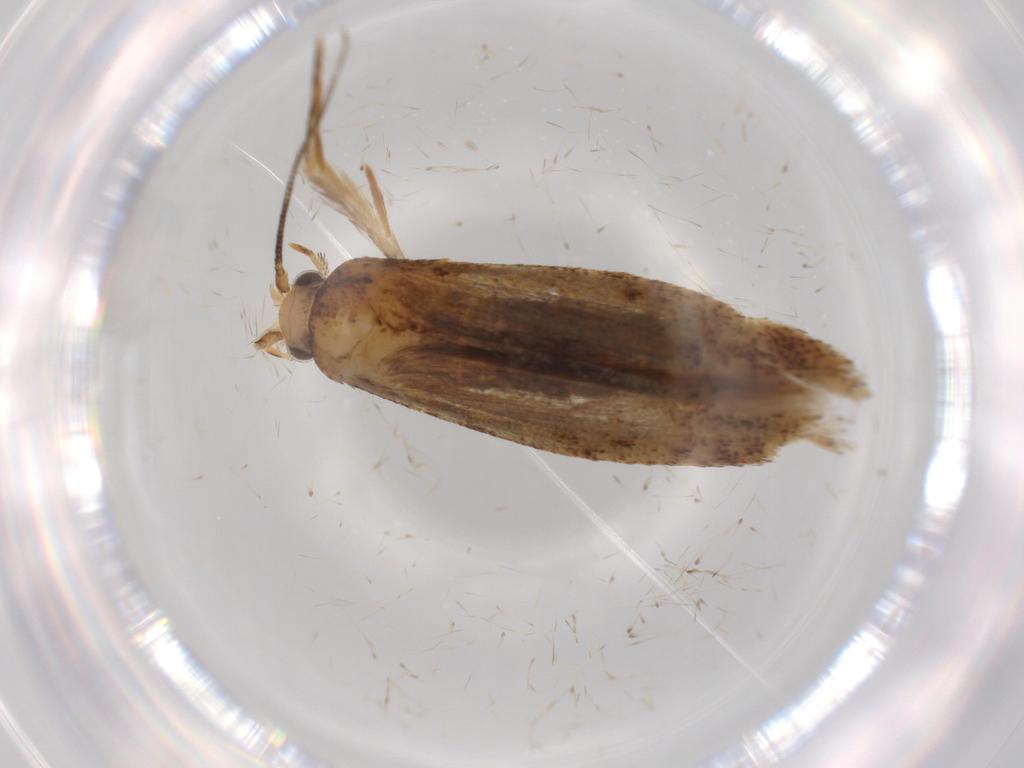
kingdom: Animalia
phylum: Arthropoda
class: Insecta
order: Lepidoptera
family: Tineidae
